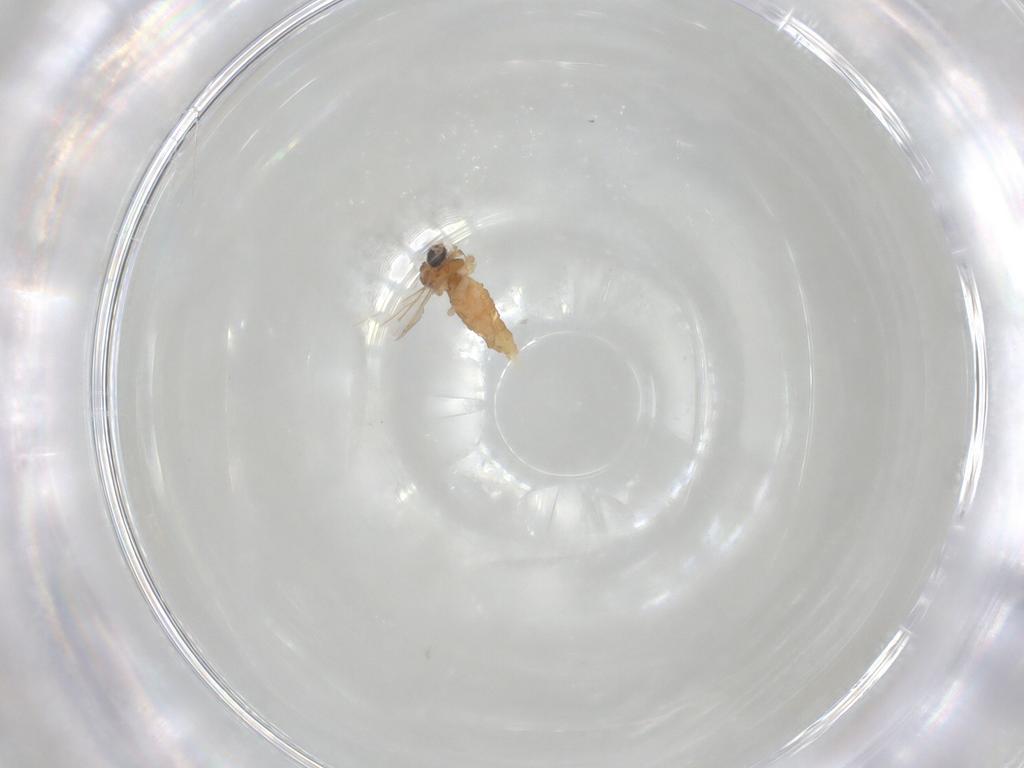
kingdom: Animalia
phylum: Arthropoda
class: Insecta
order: Diptera
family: Cecidomyiidae
